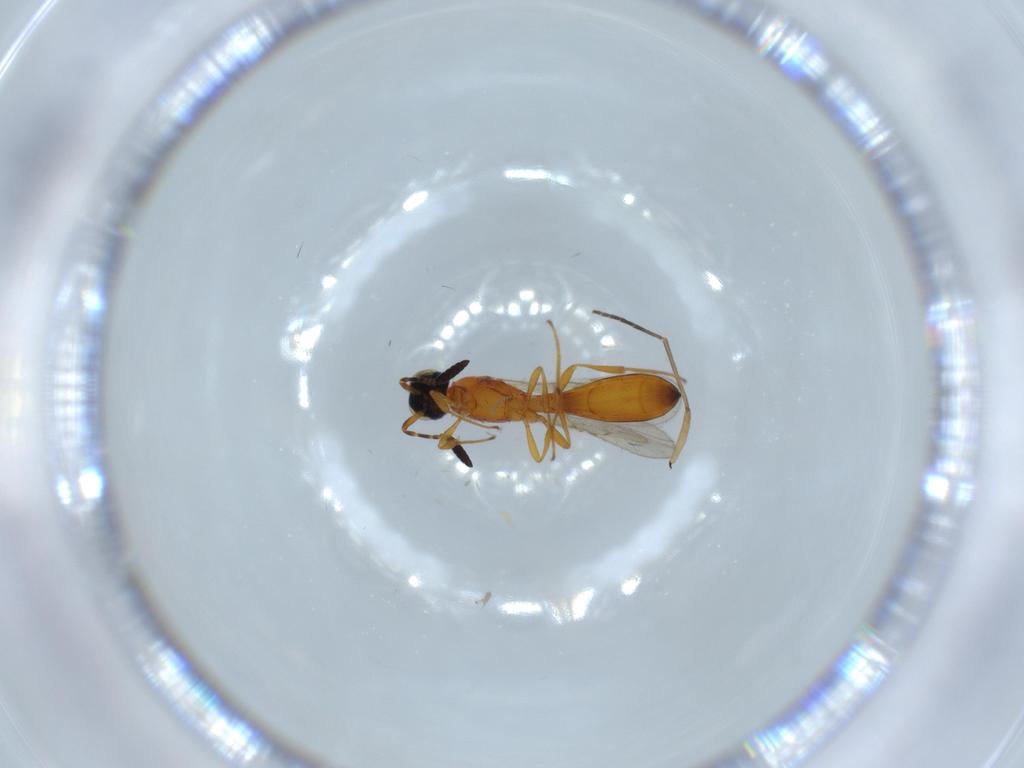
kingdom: Animalia
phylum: Arthropoda
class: Insecta
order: Hymenoptera
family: Scelionidae
